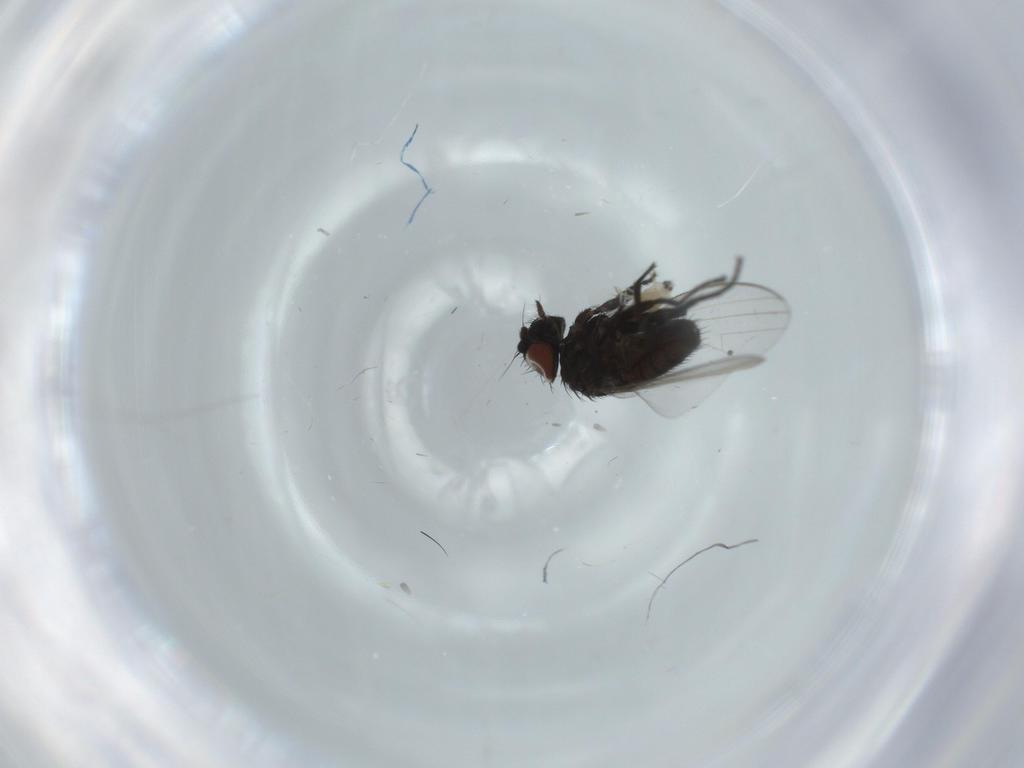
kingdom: Animalia
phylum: Arthropoda
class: Insecta
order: Diptera
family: Milichiidae
